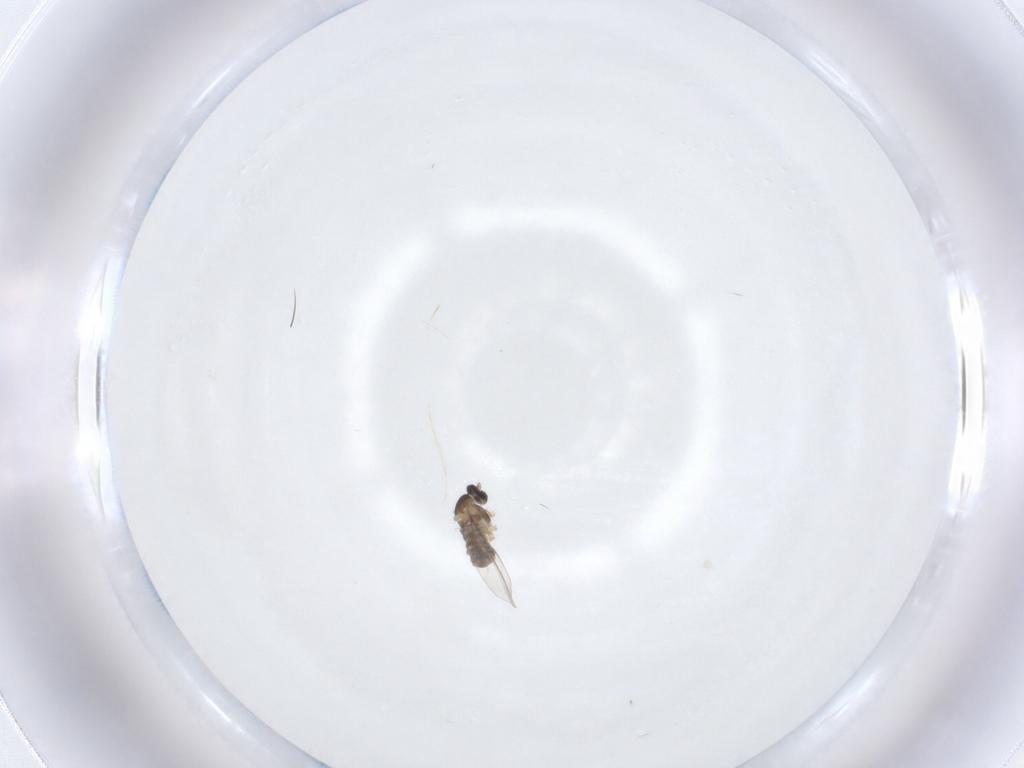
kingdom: Animalia
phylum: Arthropoda
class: Insecta
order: Diptera
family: Cecidomyiidae
